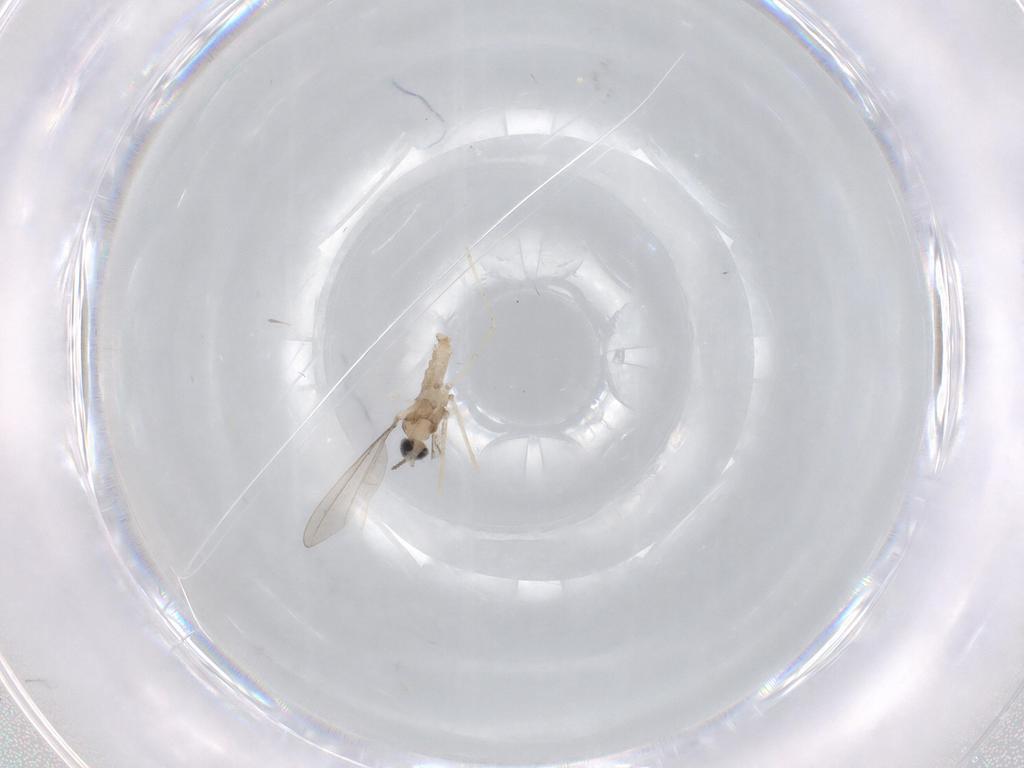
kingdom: Animalia
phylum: Arthropoda
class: Insecta
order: Diptera
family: Cecidomyiidae
